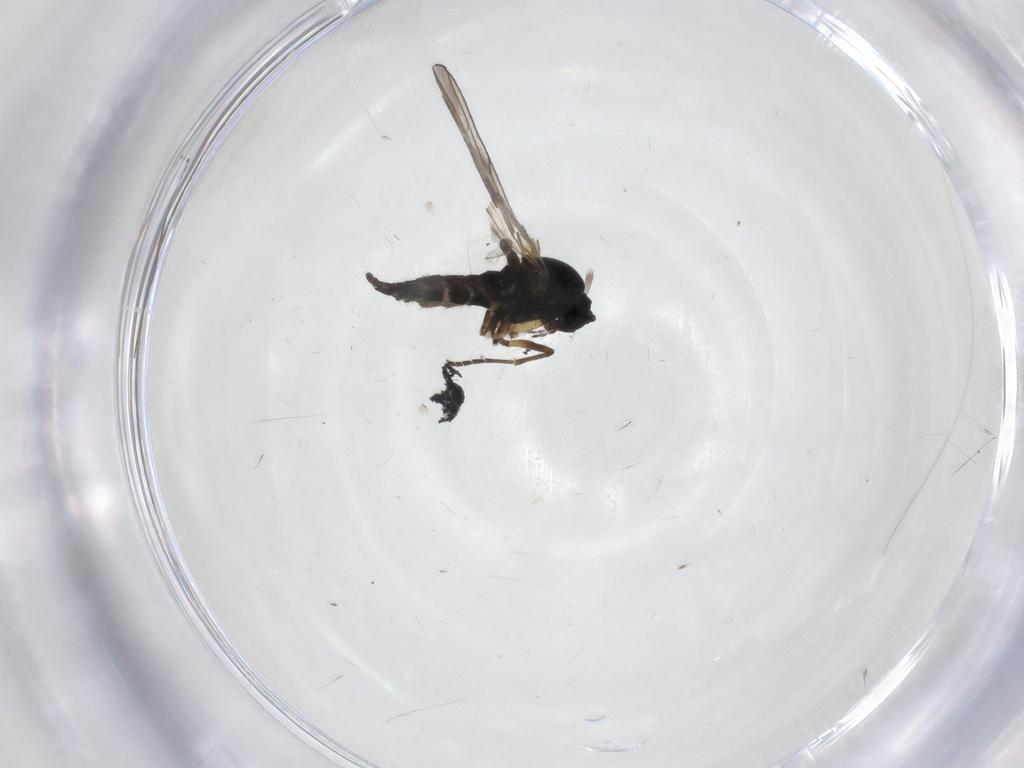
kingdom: Animalia
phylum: Arthropoda
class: Insecta
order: Diptera
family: Sciaridae
